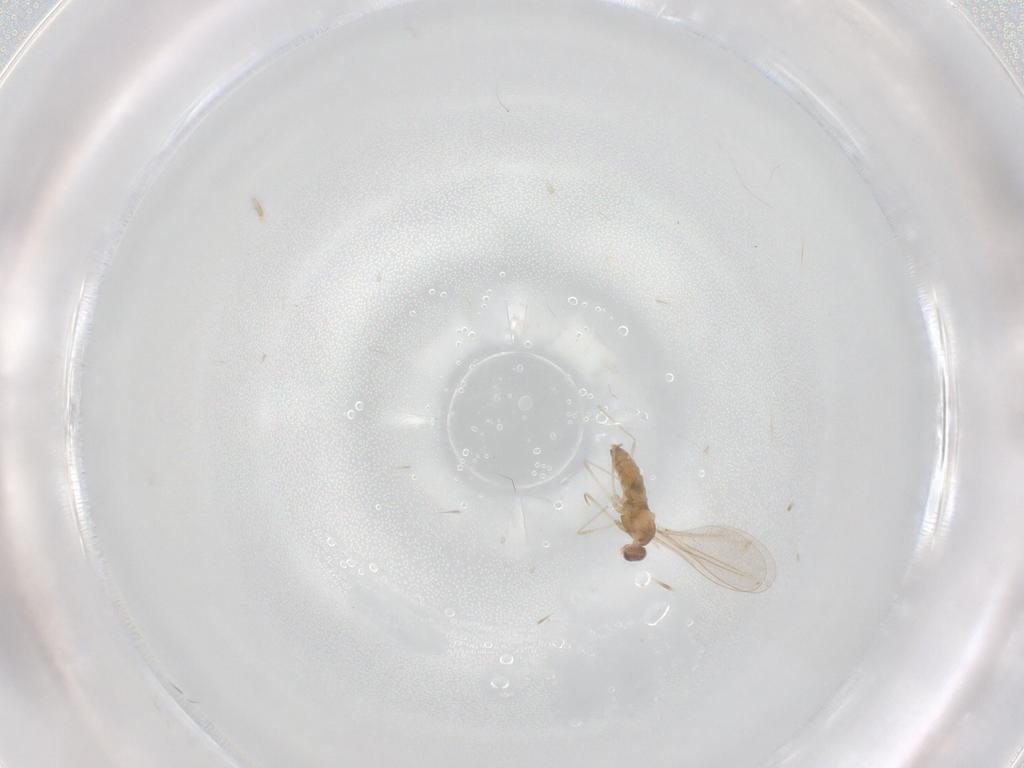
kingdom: Animalia
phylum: Arthropoda
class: Insecta
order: Diptera
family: Cecidomyiidae
